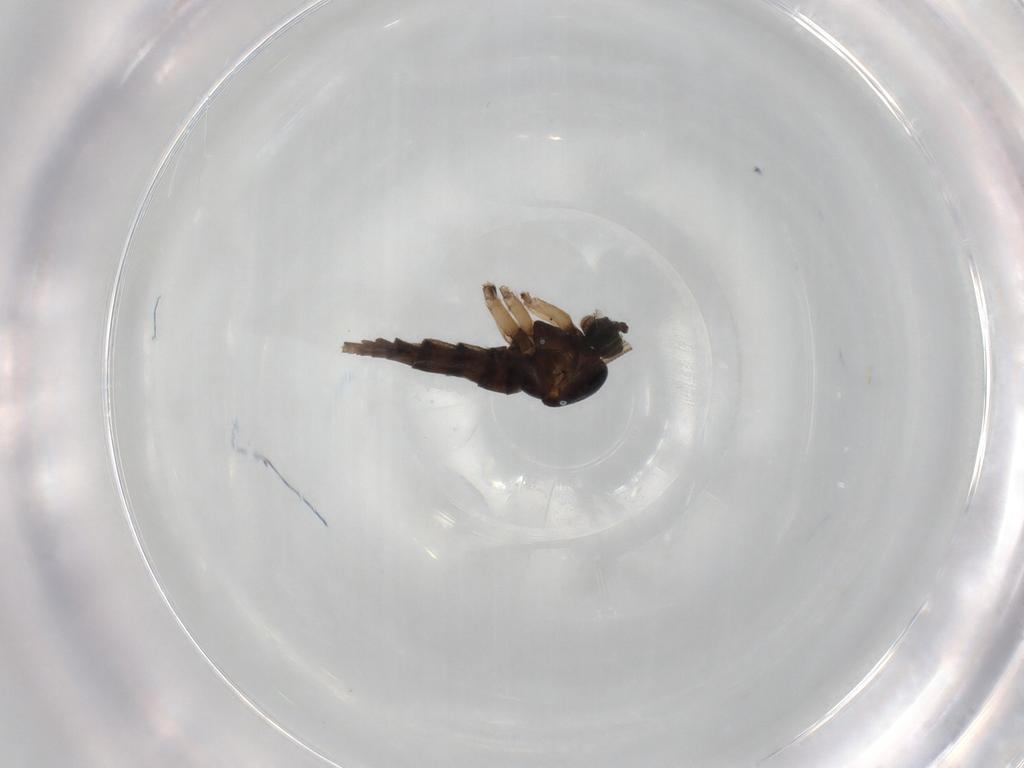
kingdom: Animalia
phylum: Arthropoda
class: Insecta
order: Diptera
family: Sciaridae
